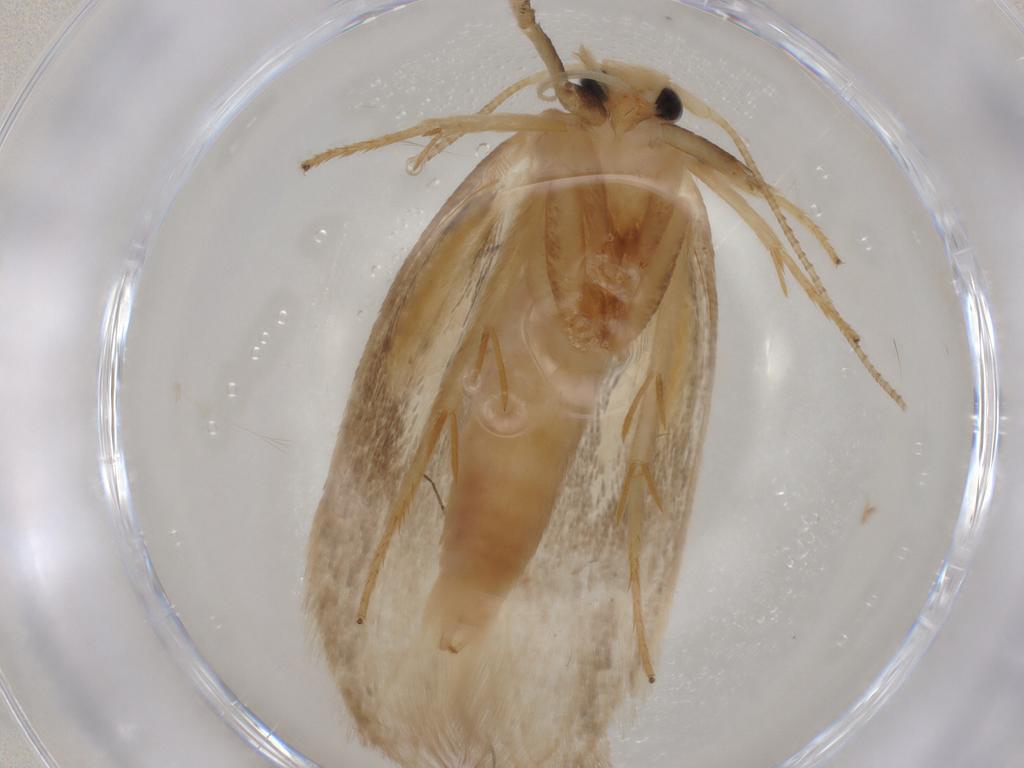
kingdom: Animalia
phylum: Arthropoda
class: Insecta
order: Lepidoptera
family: Geometridae
